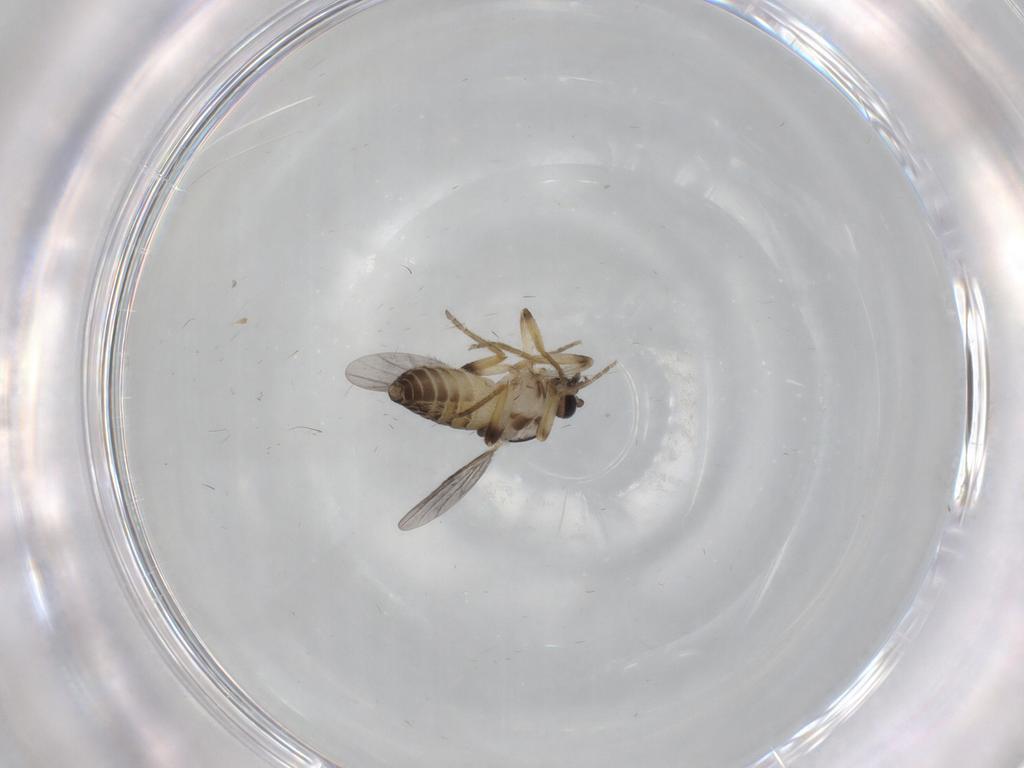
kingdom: Animalia
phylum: Arthropoda
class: Insecta
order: Diptera
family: Ceratopogonidae
